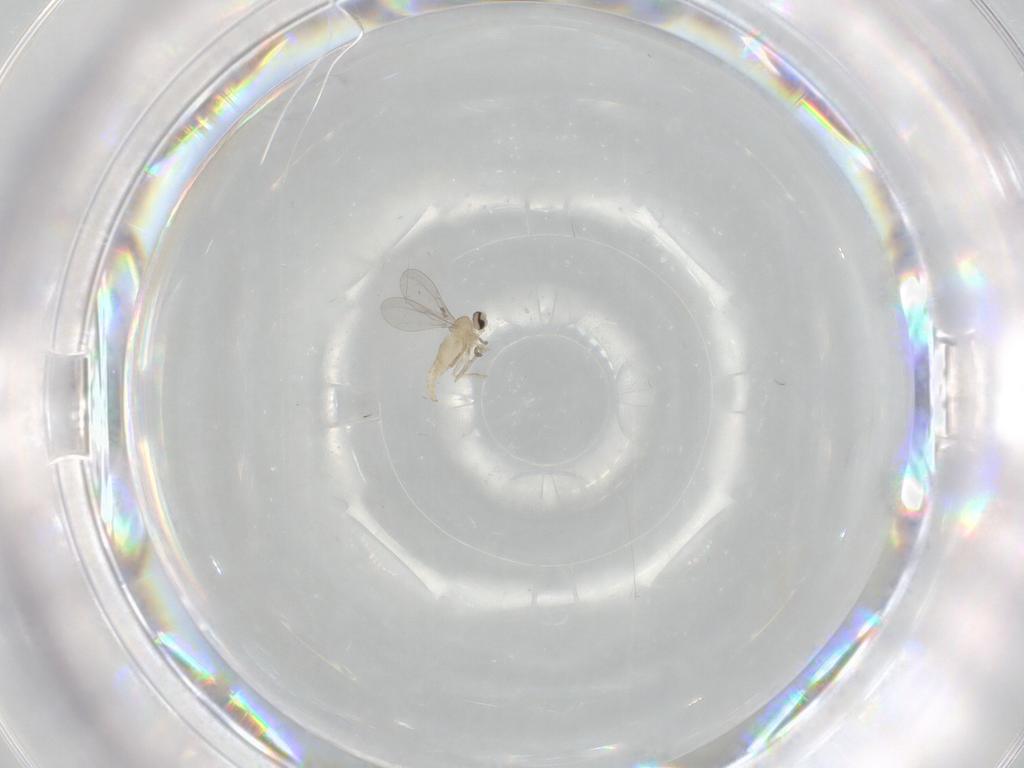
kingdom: Animalia
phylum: Arthropoda
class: Insecta
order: Diptera
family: Cecidomyiidae
